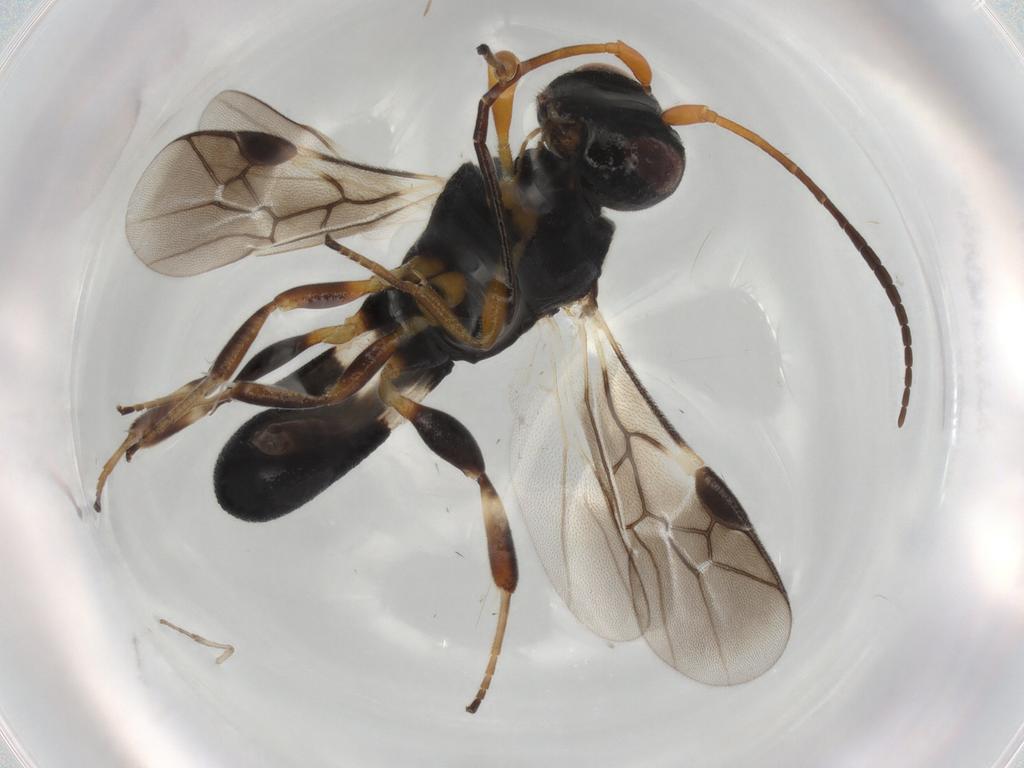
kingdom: Animalia
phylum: Arthropoda
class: Insecta
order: Hymenoptera
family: Braconidae
